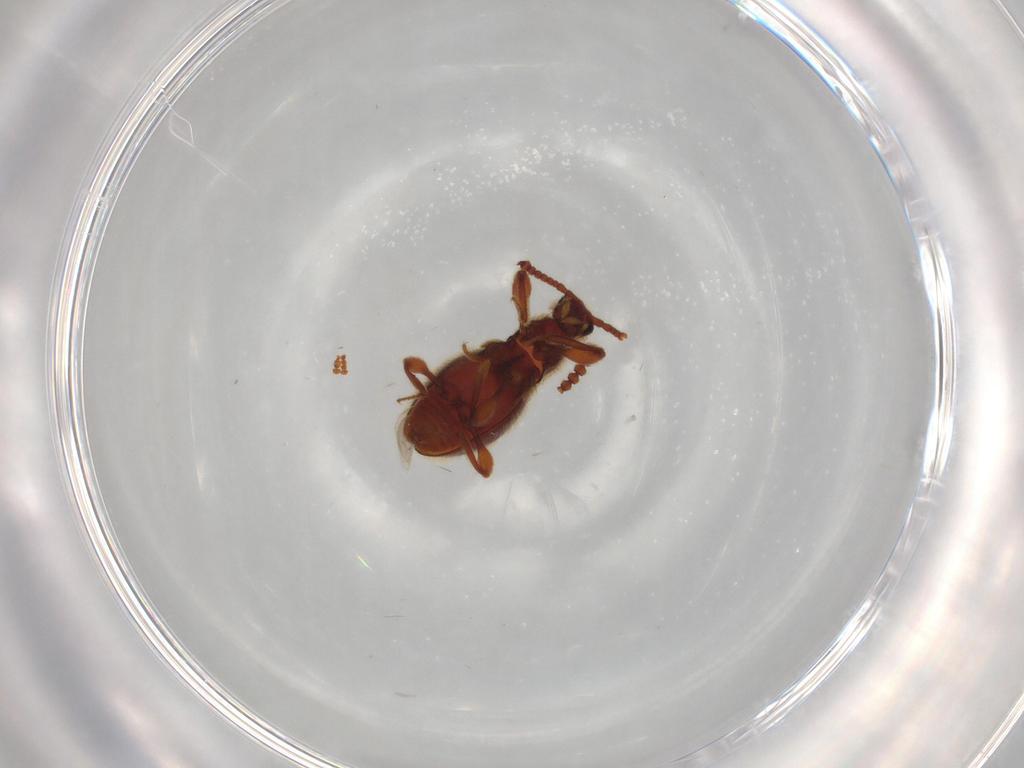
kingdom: Animalia
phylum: Arthropoda
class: Insecta
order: Coleoptera
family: Staphylinidae
